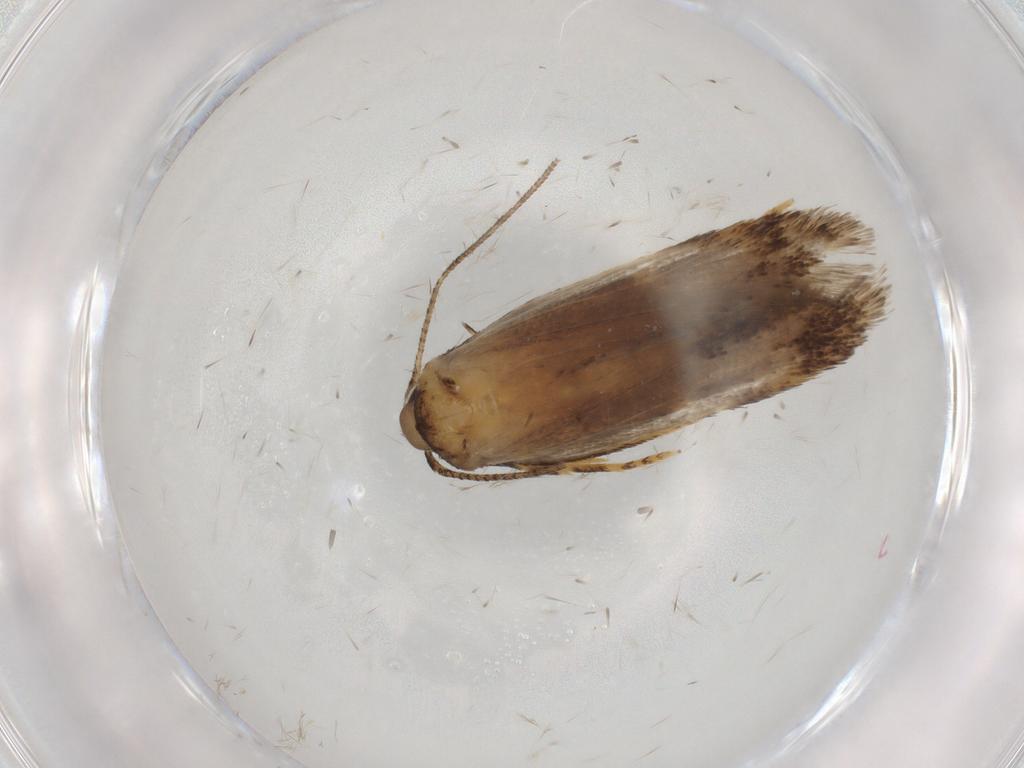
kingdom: Animalia
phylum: Arthropoda
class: Insecta
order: Lepidoptera
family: Autostichidae
